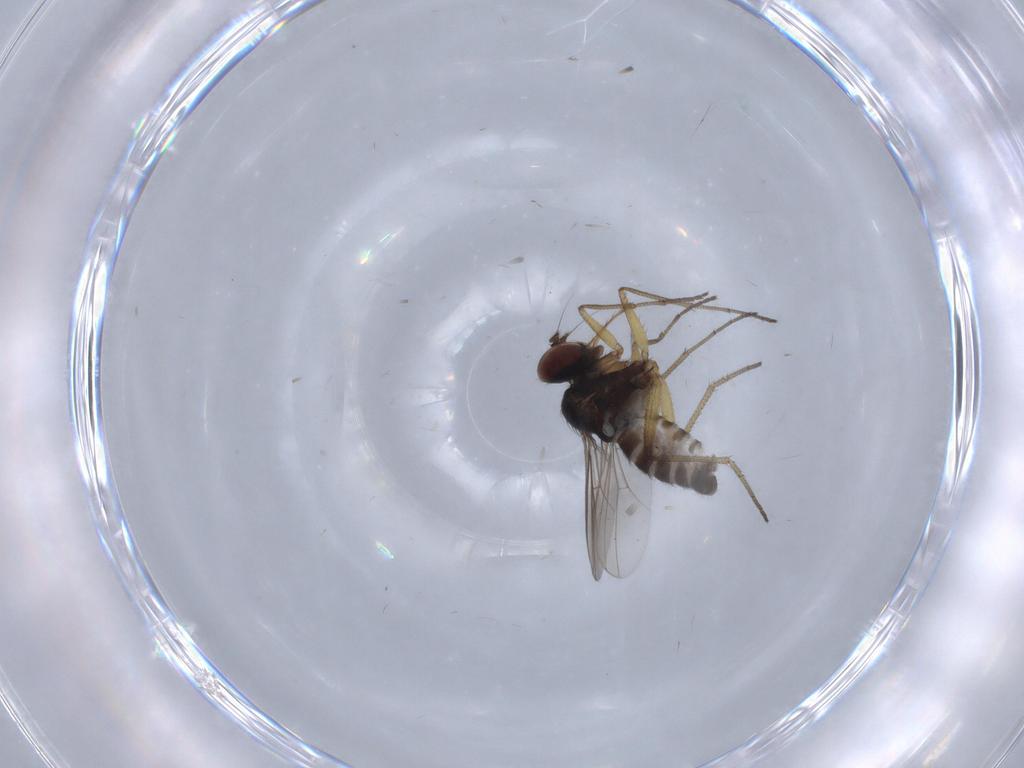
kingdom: Animalia
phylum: Arthropoda
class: Insecta
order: Diptera
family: Dolichopodidae
